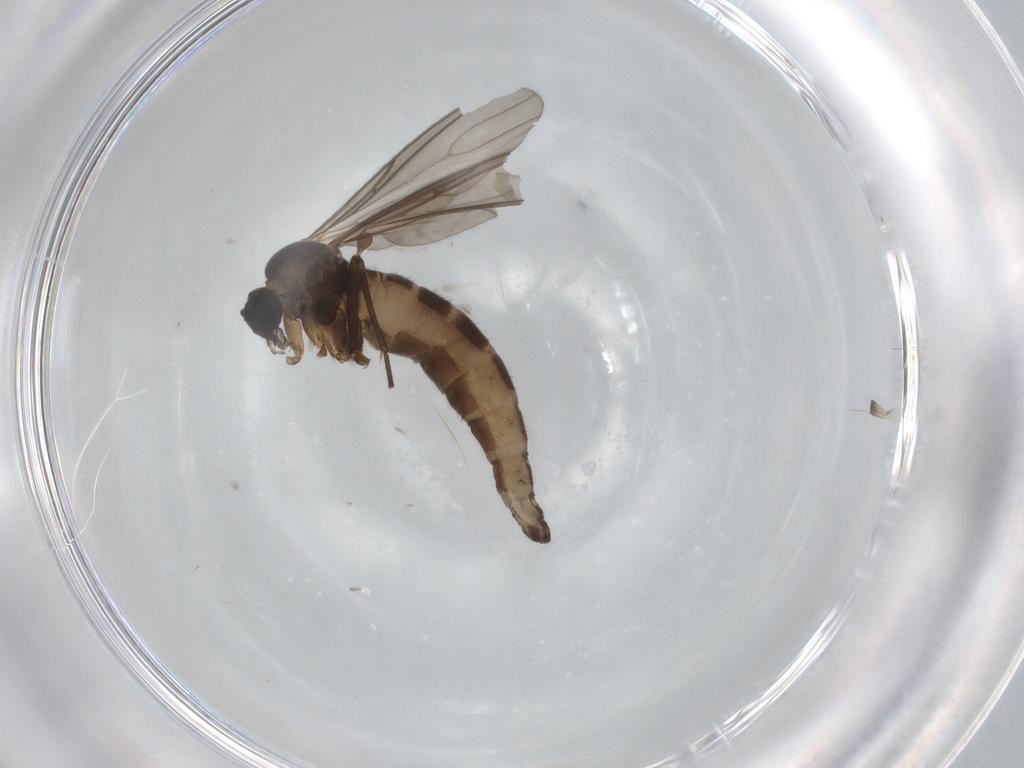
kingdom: Animalia
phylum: Arthropoda
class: Insecta
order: Diptera
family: Sciaridae
